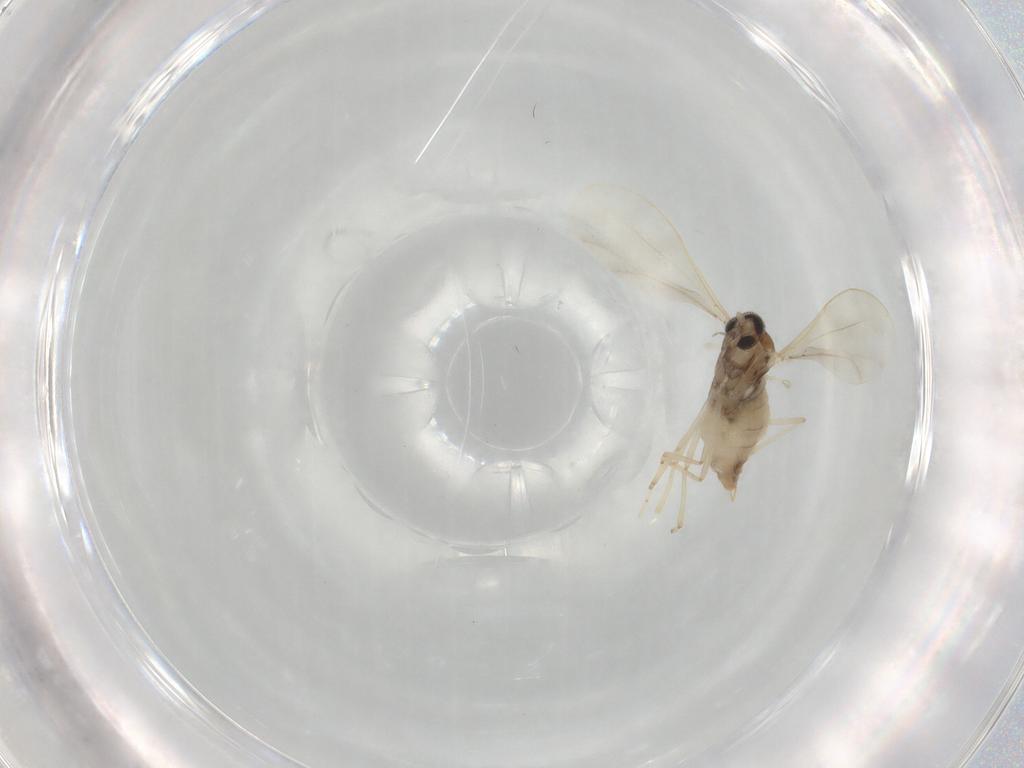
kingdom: Animalia
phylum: Arthropoda
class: Insecta
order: Diptera
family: Cecidomyiidae
